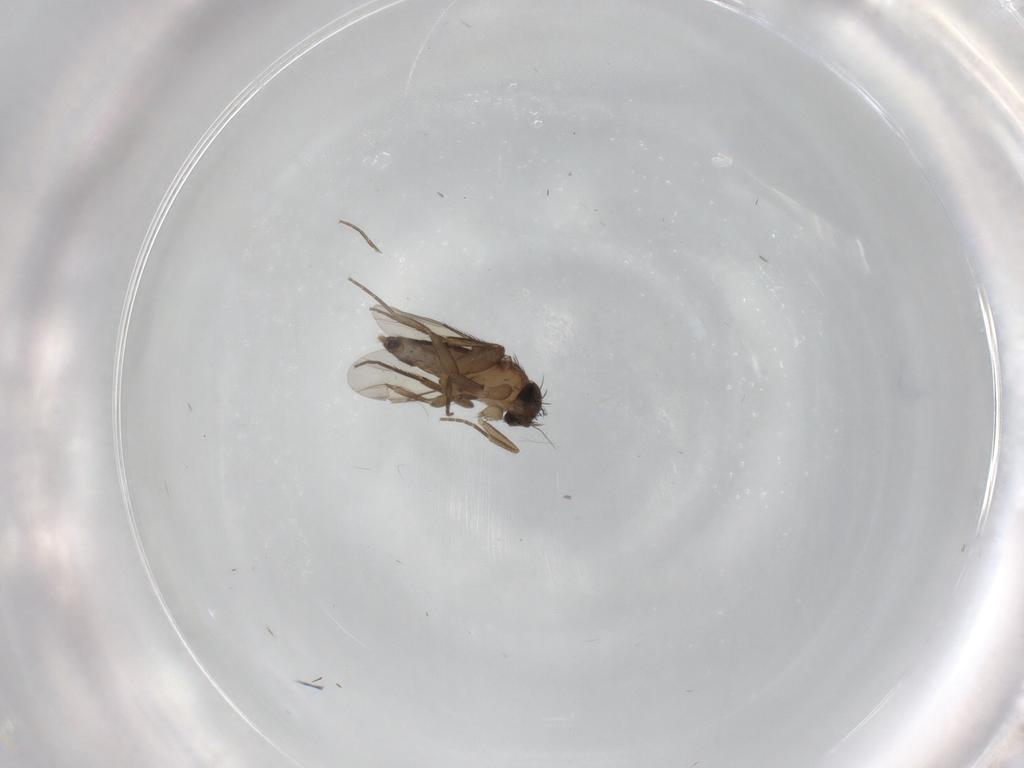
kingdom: Animalia
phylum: Arthropoda
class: Insecta
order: Diptera
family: Phoridae
